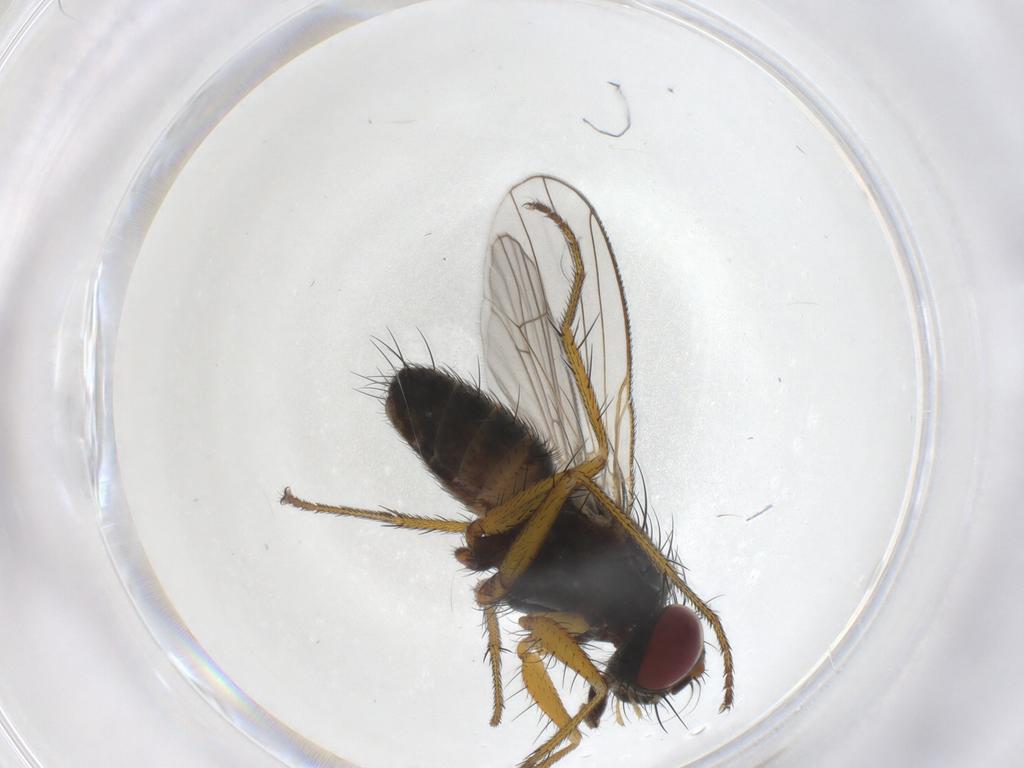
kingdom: Animalia
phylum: Arthropoda
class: Insecta
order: Diptera
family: Muscidae
